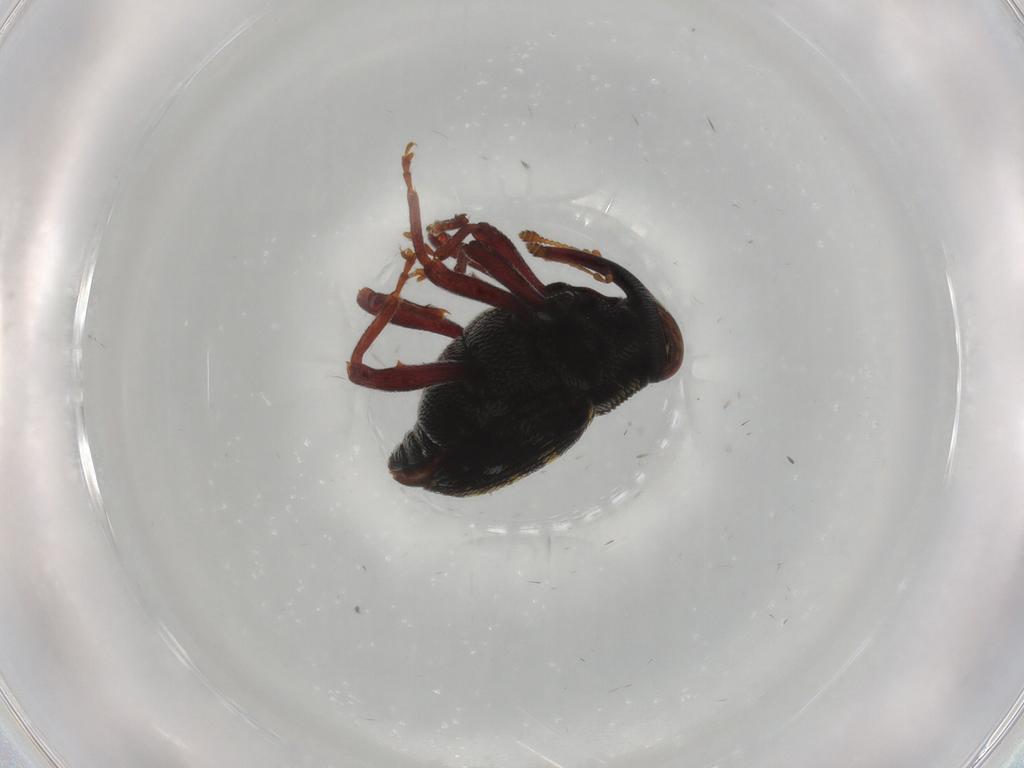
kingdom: Animalia
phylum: Arthropoda
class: Insecta
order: Coleoptera
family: Curculionidae
